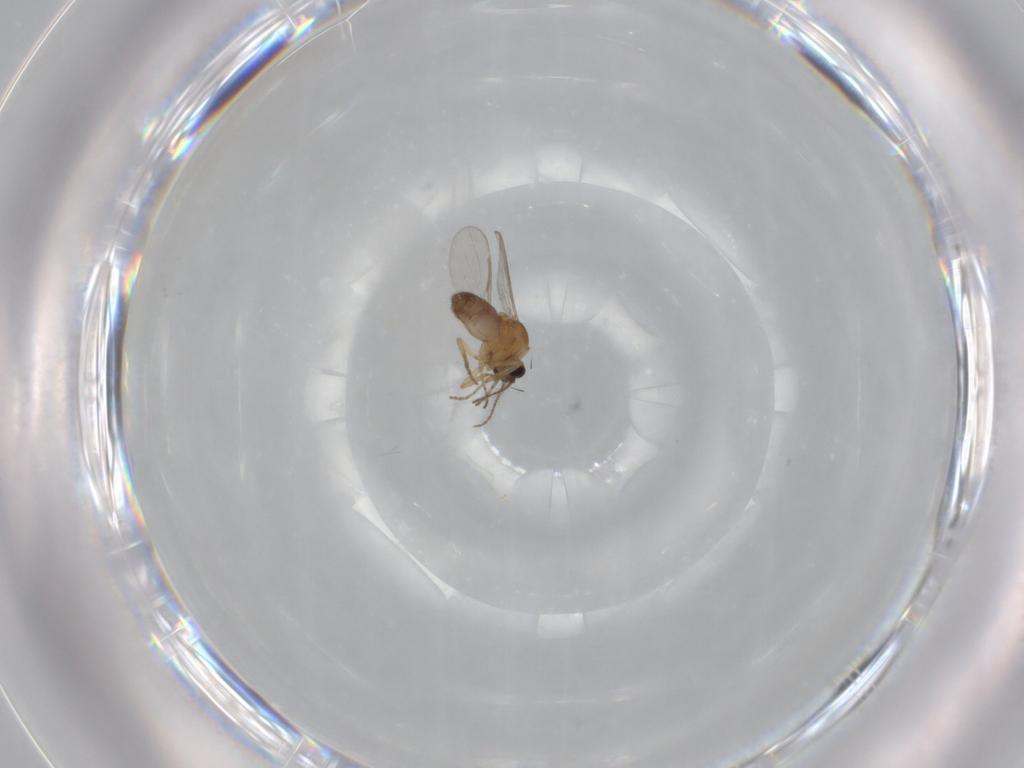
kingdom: Animalia
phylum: Arthropoda
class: Insecta
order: Diptera
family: Ceratopogonidae
